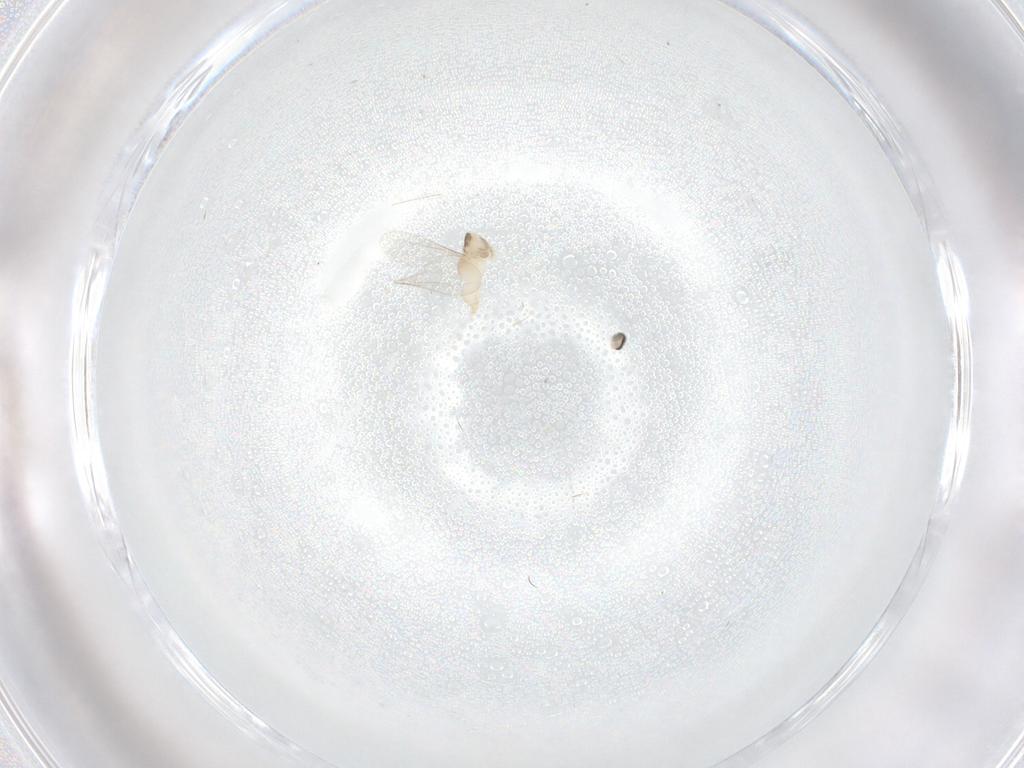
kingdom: Animalia
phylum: Arthropoda
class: Insecta
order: Diptera
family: Cecidomyiidae
